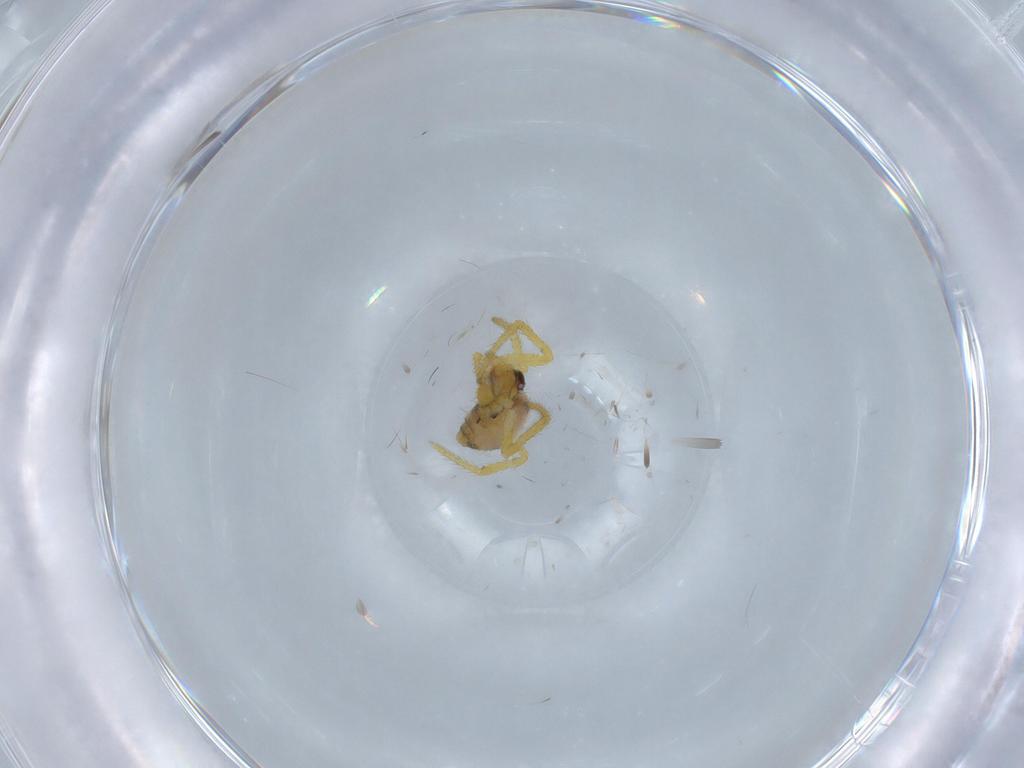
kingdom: Animalia
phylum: Arthropoda
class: Arachnida
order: Araneae
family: Theridiidae
